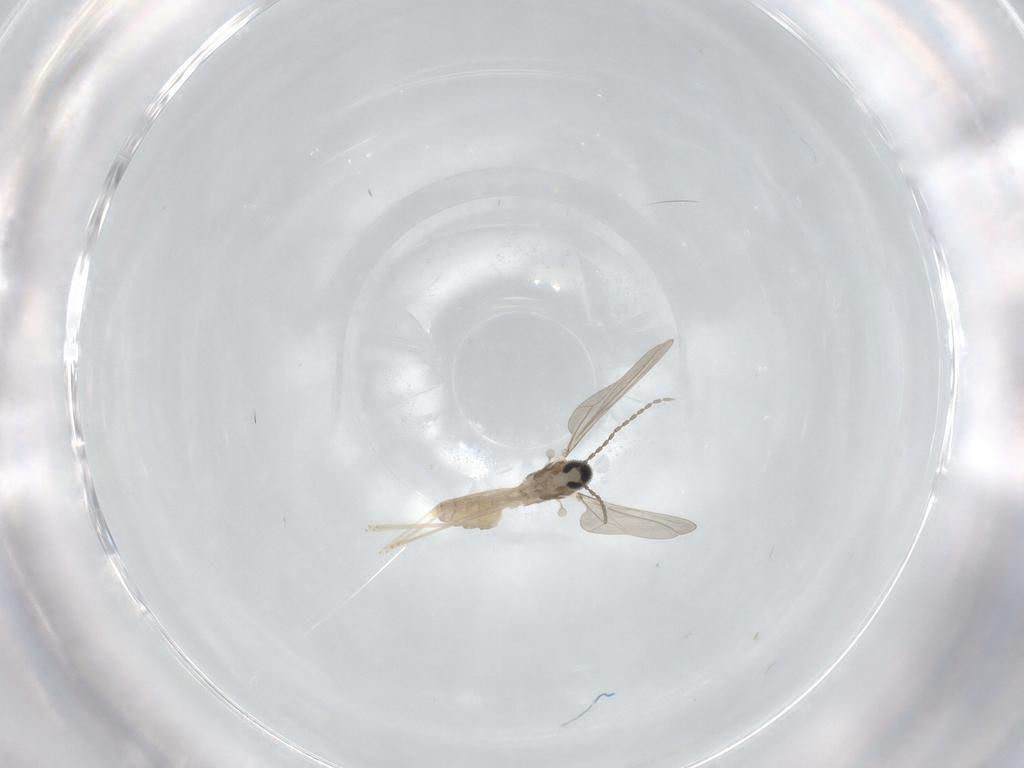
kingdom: Animalia
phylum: Arthropoda
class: Insecta
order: Diptera
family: Cecidomyiidae
